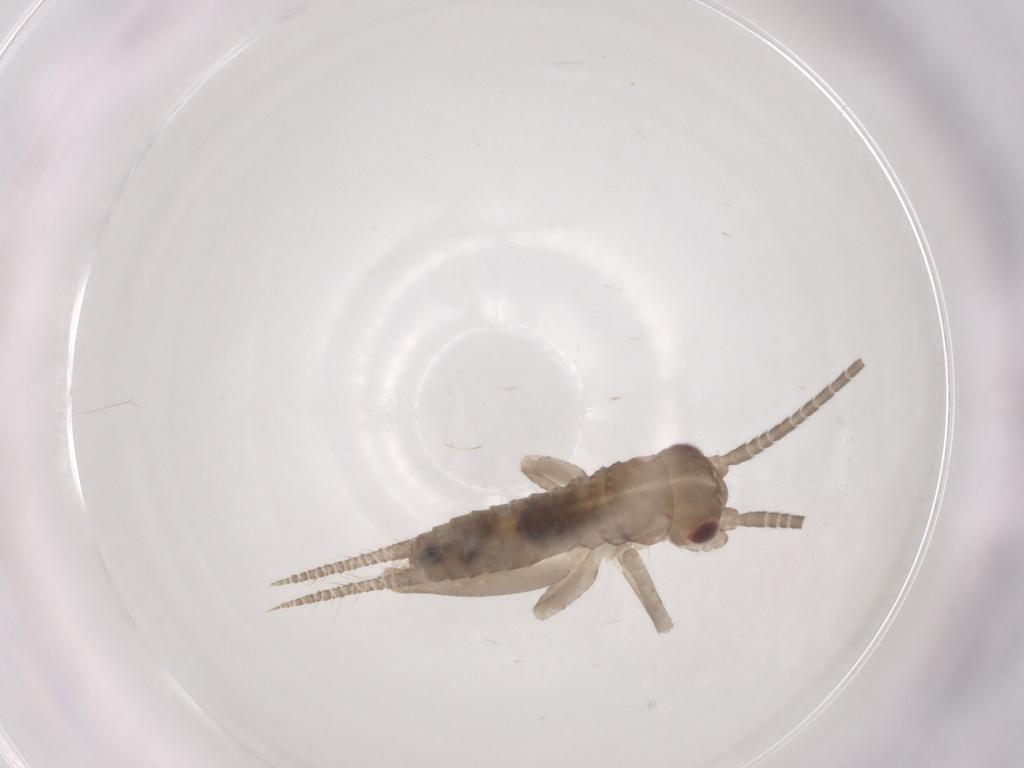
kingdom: Animalia
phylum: Arthropoda
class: Insecta
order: Orthoptera
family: Gryllidae
